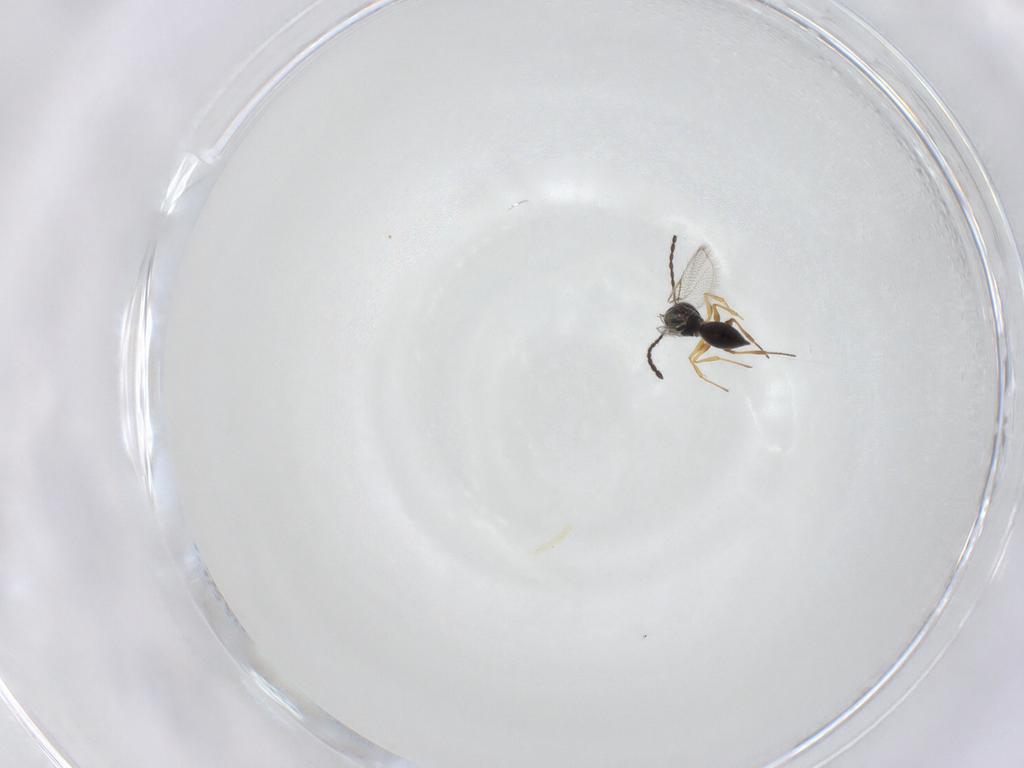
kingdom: Animalia
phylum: Arthropoda
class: Insecta
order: Hymenoptera
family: Figitidae
